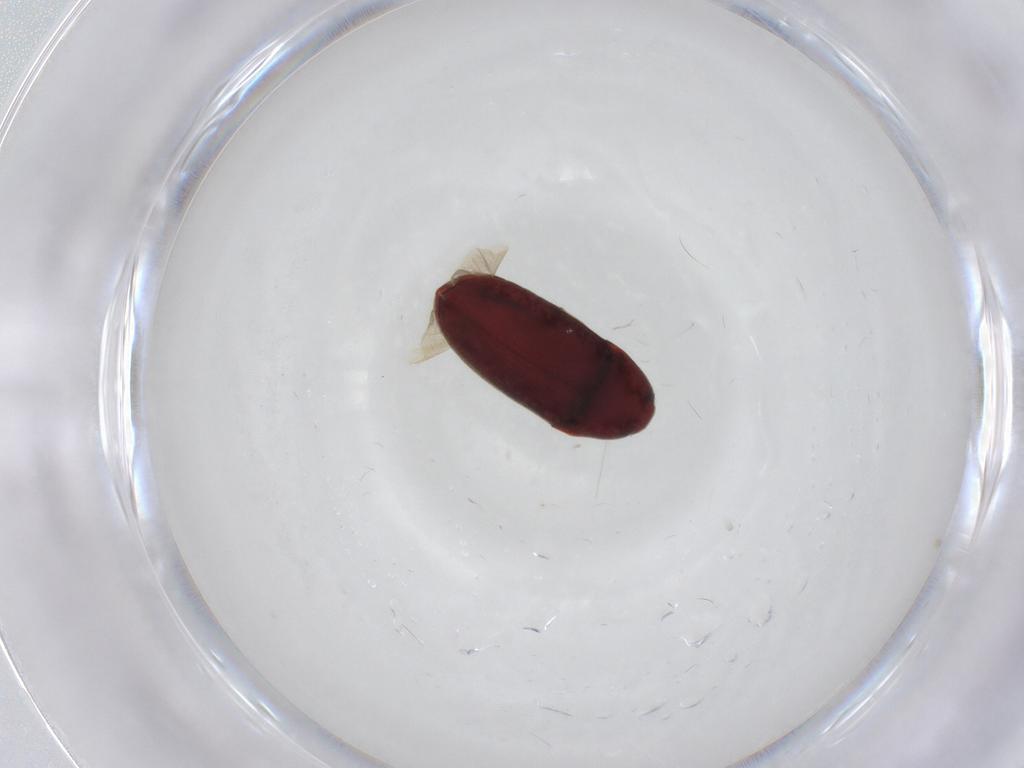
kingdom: Animalia
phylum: Arthropoda
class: Insecta
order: Coleoptera
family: Throscidae
